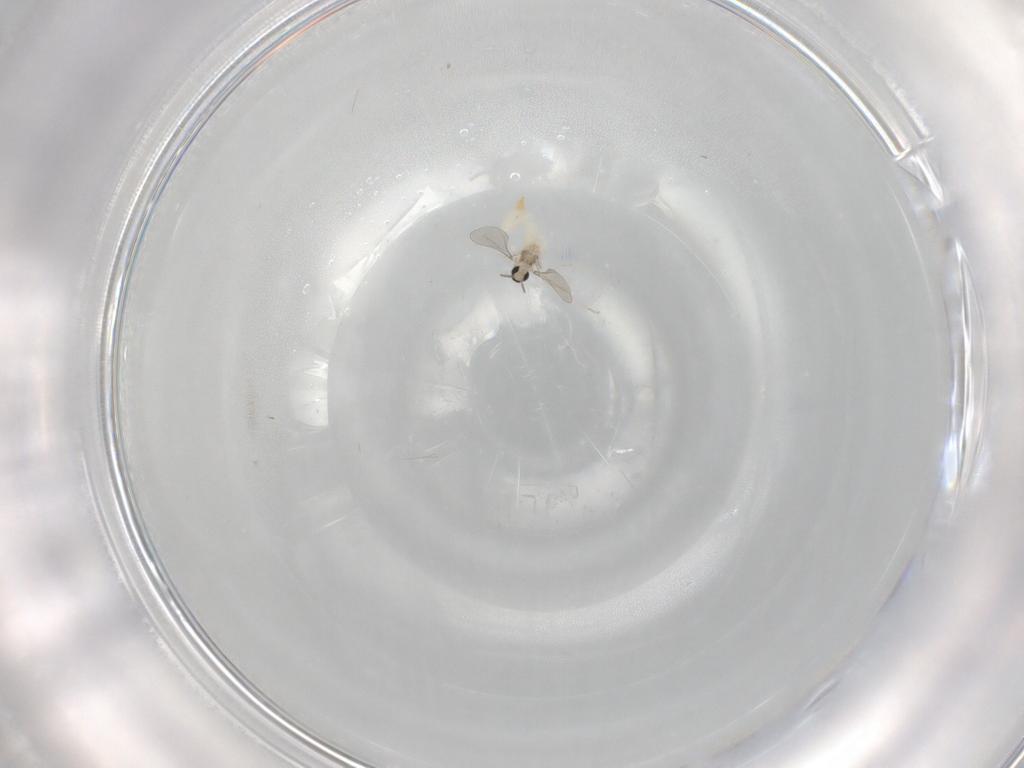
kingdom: Animalia
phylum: Arthropoda
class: Insecta
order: Diptera
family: Cecidomyiidae
